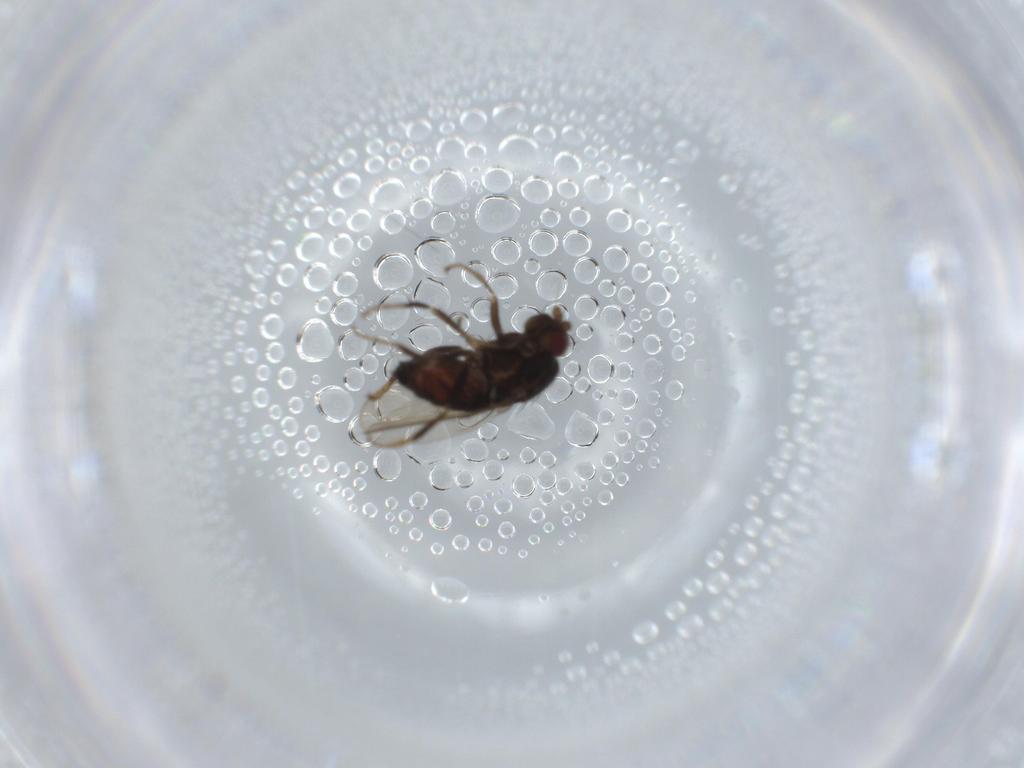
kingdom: Animalia
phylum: Arthropoda
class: Insecta
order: Diptera
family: Sphaeroceridae
